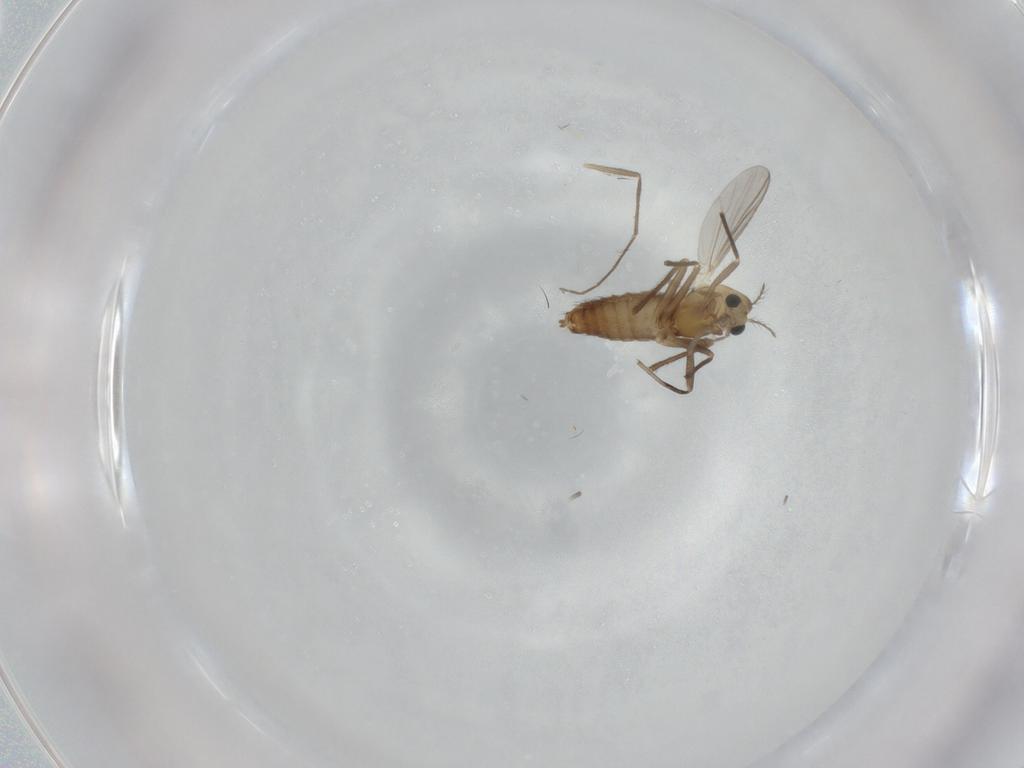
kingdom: Animalia
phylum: Arthropoda
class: Insecta
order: Diptera
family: Chironomidae
